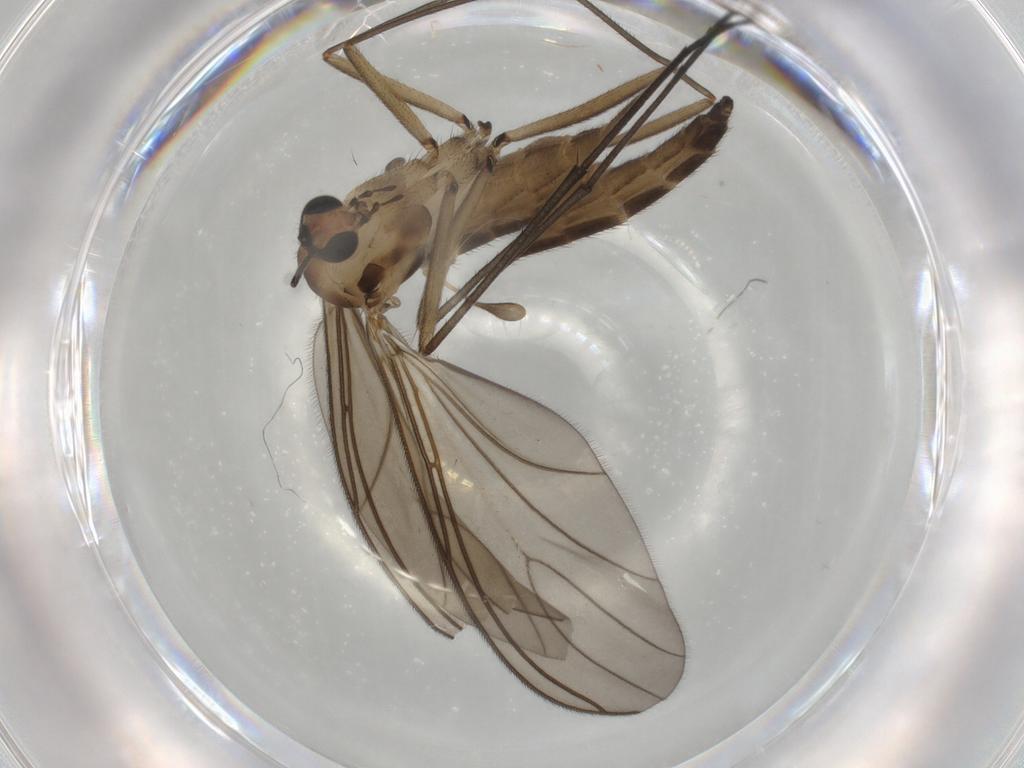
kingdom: Animalia
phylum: Arthropoda
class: Insecta
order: Diptera
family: Sciaridae
